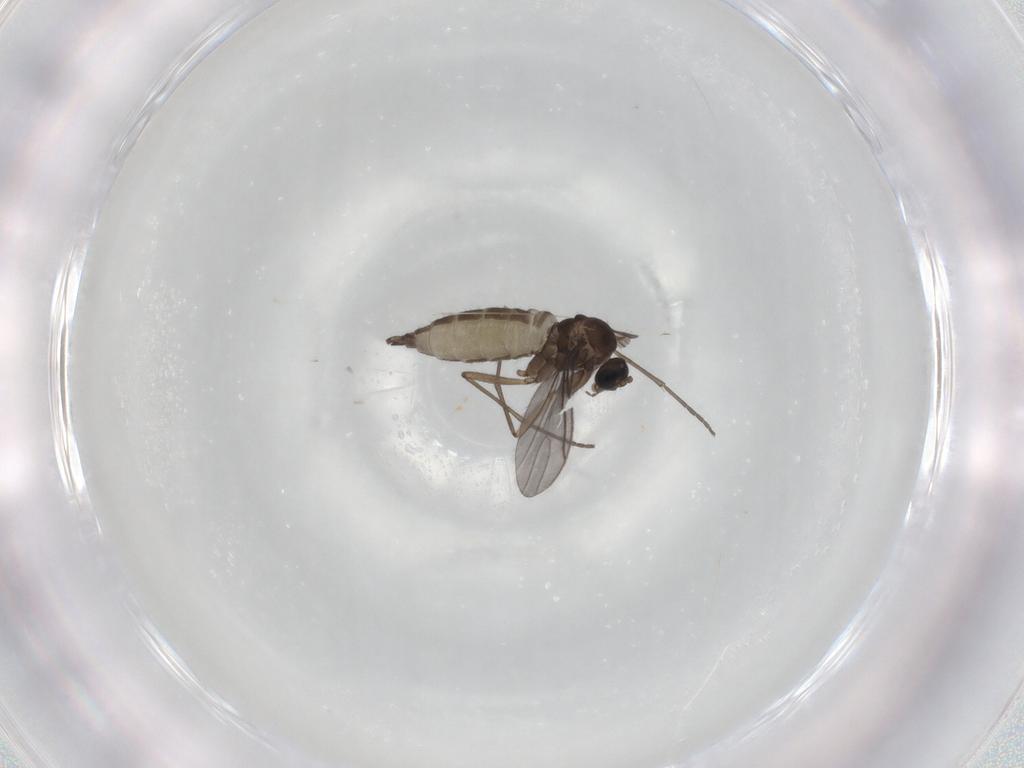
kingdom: Animalia
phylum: Arthropoda
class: Insecta
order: Diptera
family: Sciaridae
